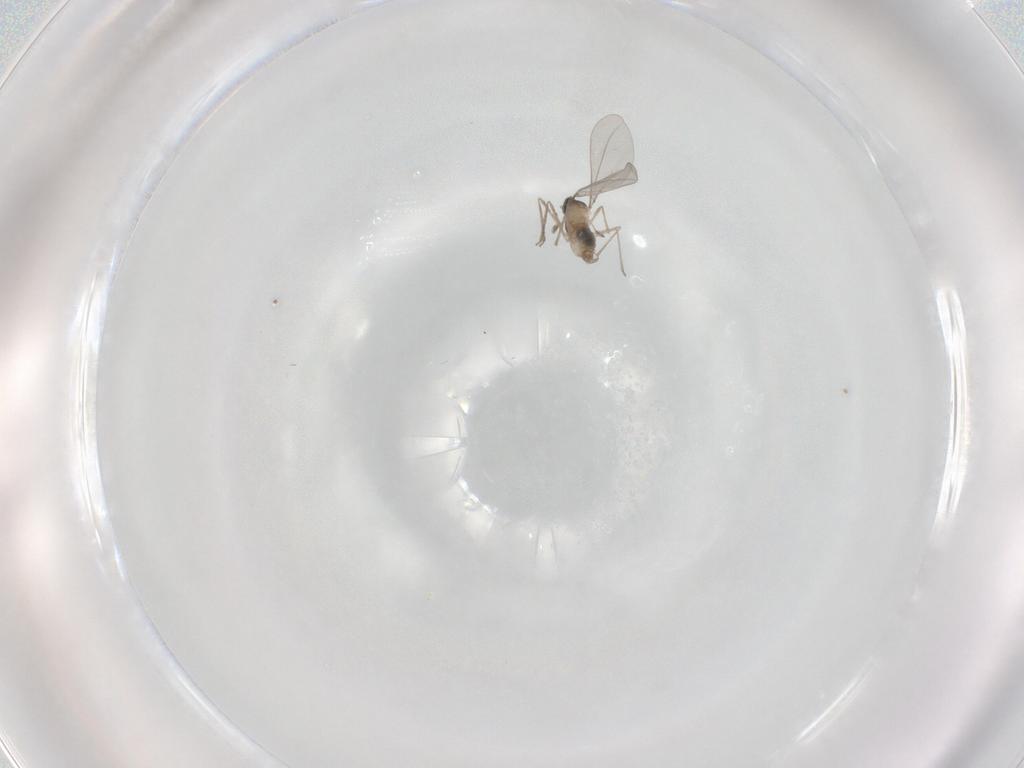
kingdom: Animalia
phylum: Arthropoda
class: Insecta
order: Diptera
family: Cecidomyiidae
